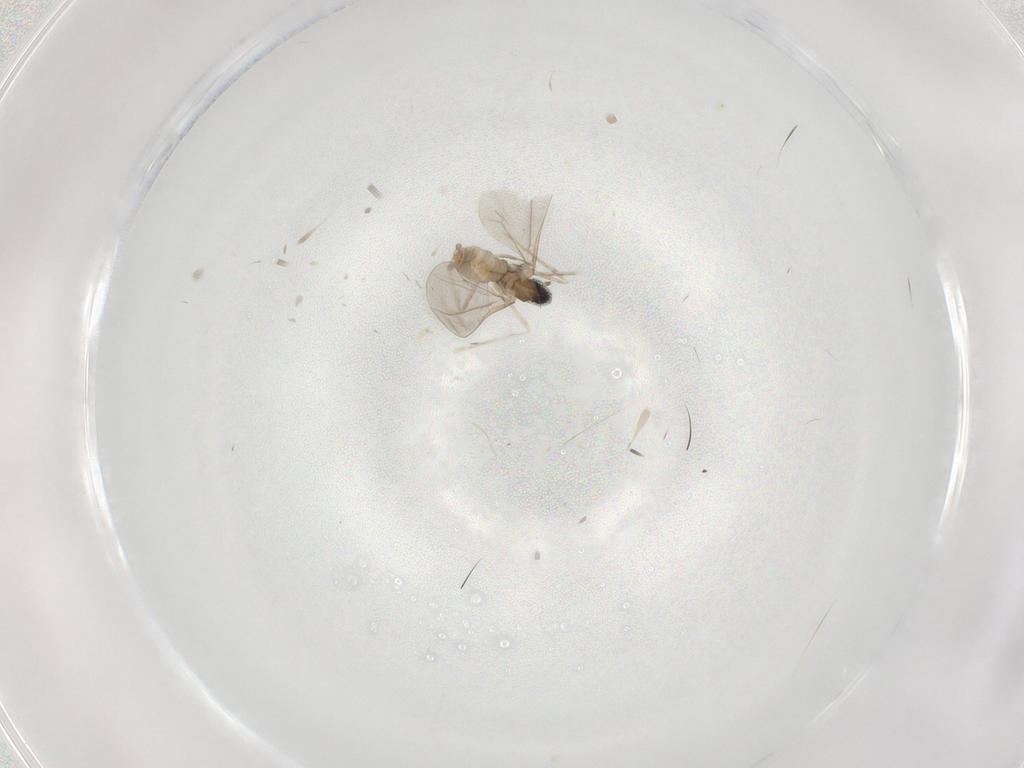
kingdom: Animalia
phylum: Arthropoda
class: Insecta
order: Diptera
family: Cecidomyiidae
